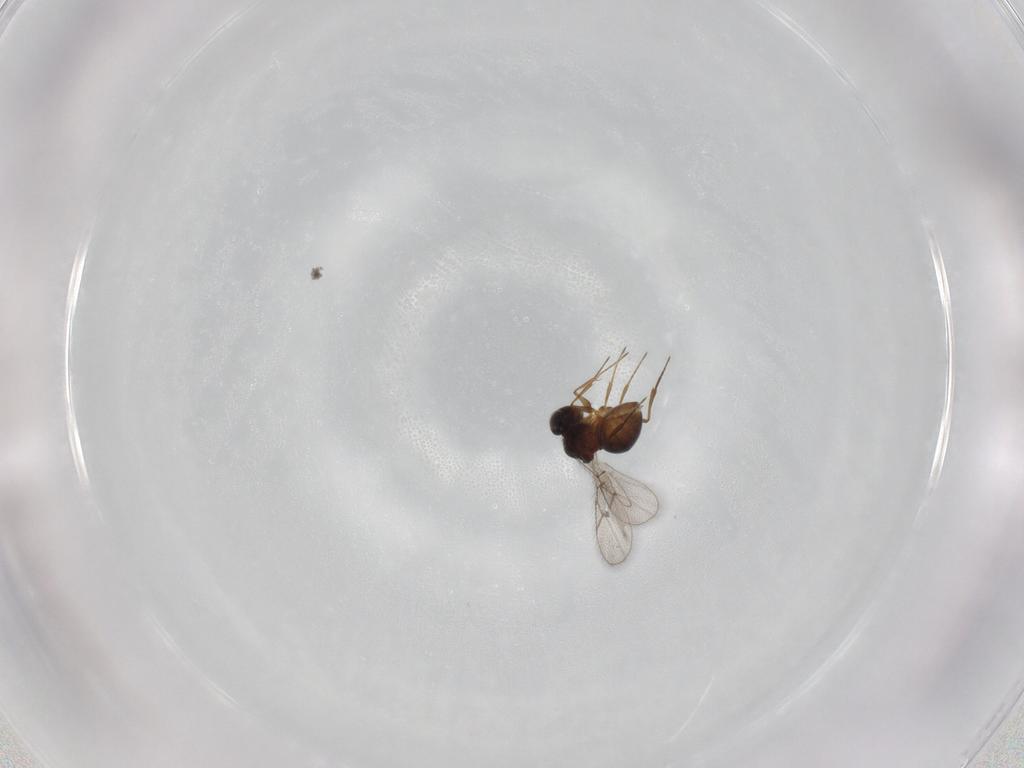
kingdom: Animalia
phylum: Arthropoda
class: Insecta
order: Hymenoptera
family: Figitidae
